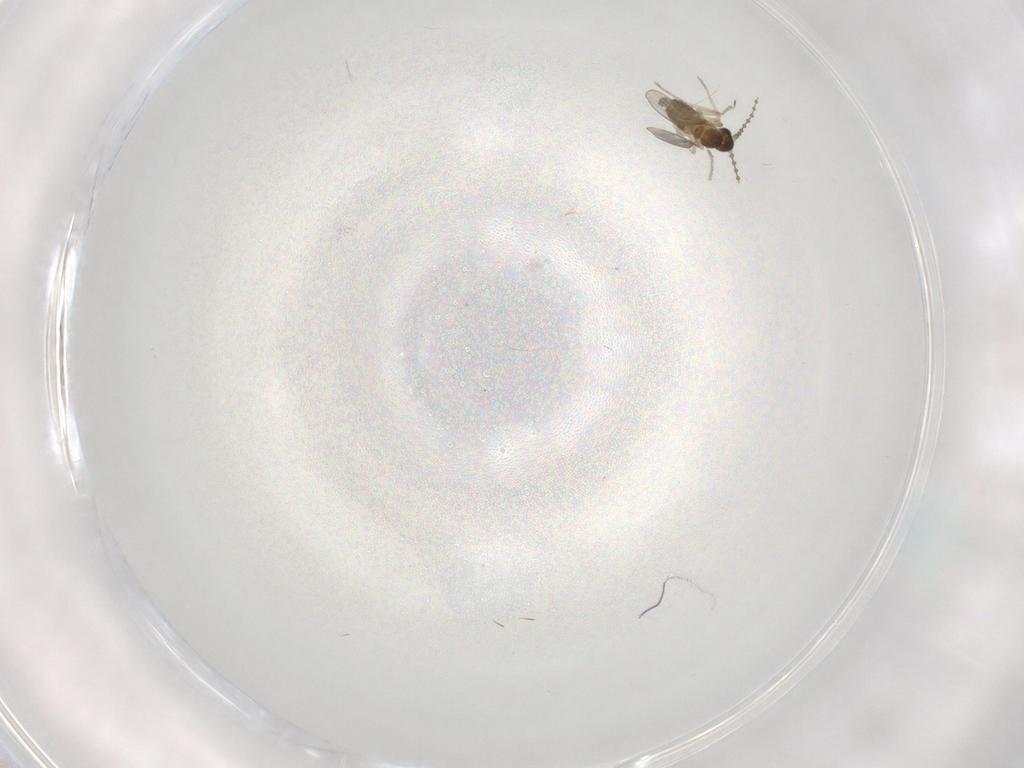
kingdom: Animalia
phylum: Arthropoda
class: Insecta
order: Diptera
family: Cecidomyiidae
